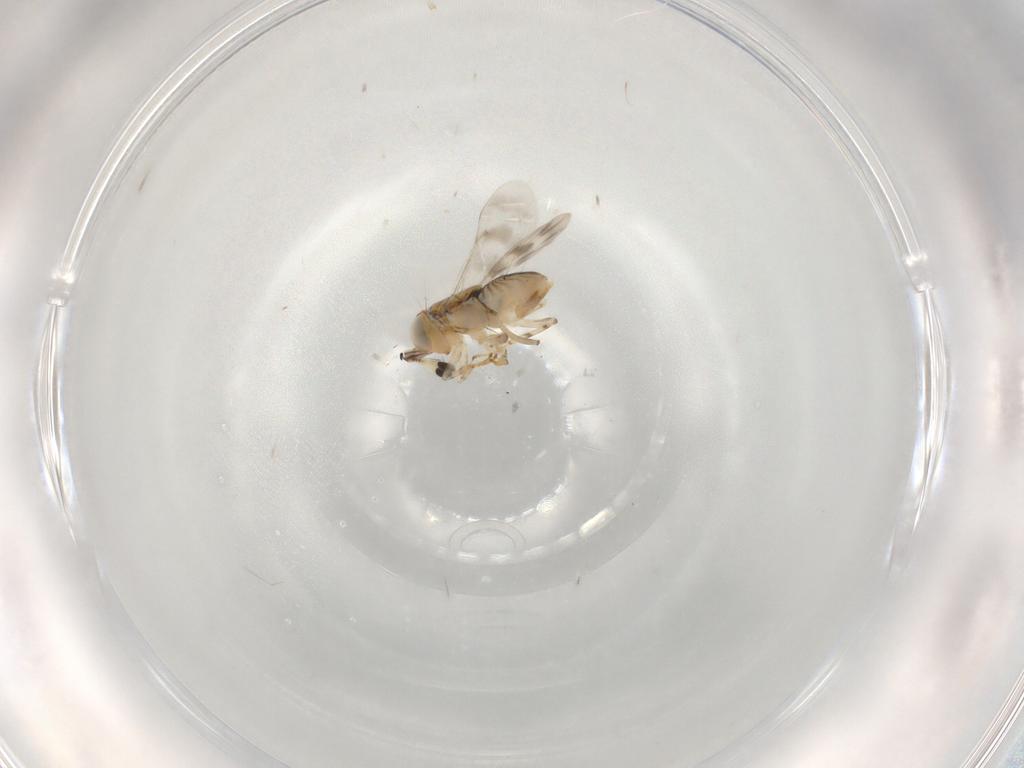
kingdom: Animalia
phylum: Arthropoda
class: Insecta
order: Hymenoptera
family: Encyrtidae
